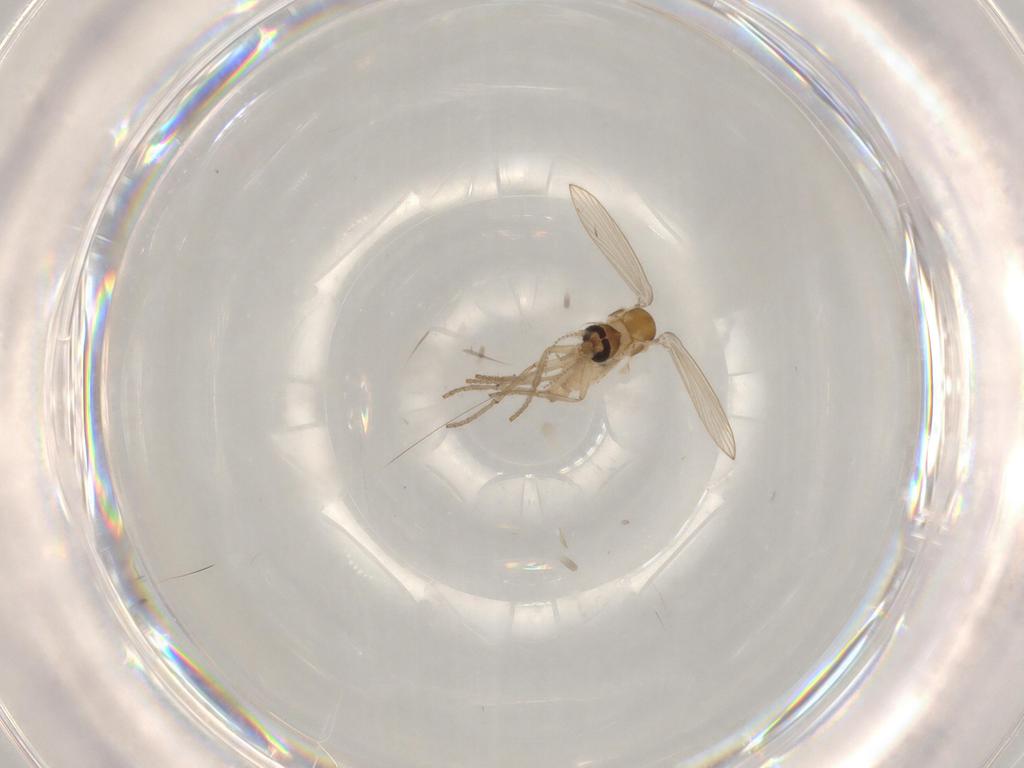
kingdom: Animalia
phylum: Arthropoda
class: Insecta
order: Diptera
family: Psychodidae
